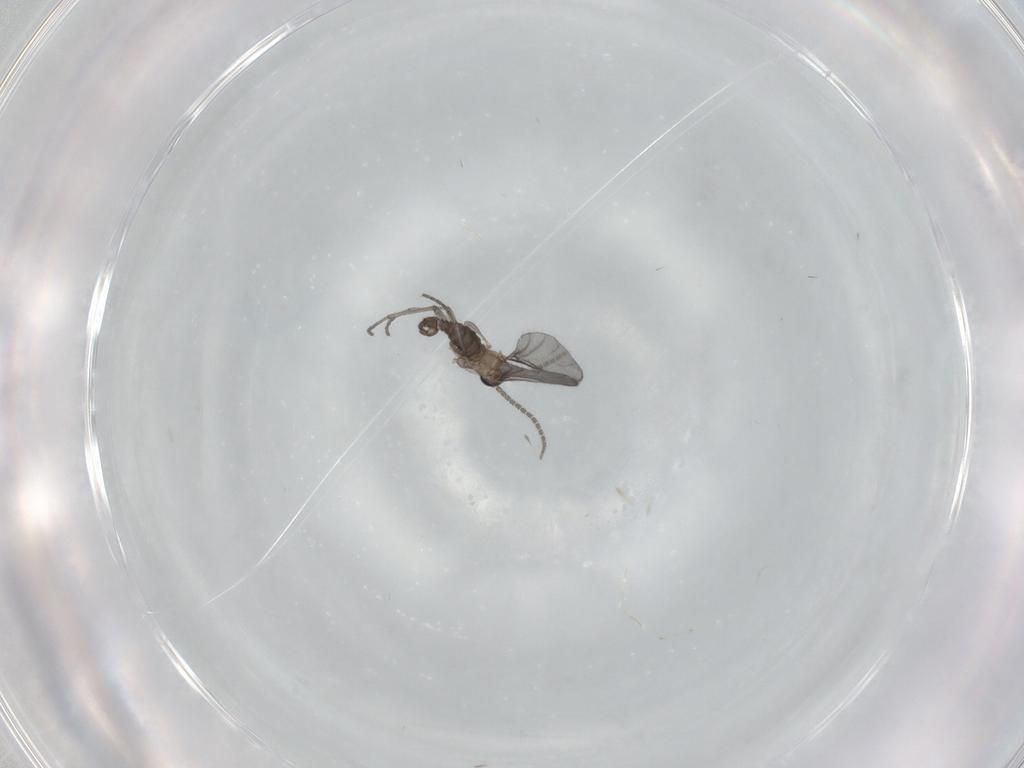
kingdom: Animalia
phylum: Arthropoda
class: Insecta
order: Diptera
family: Sciaridae
